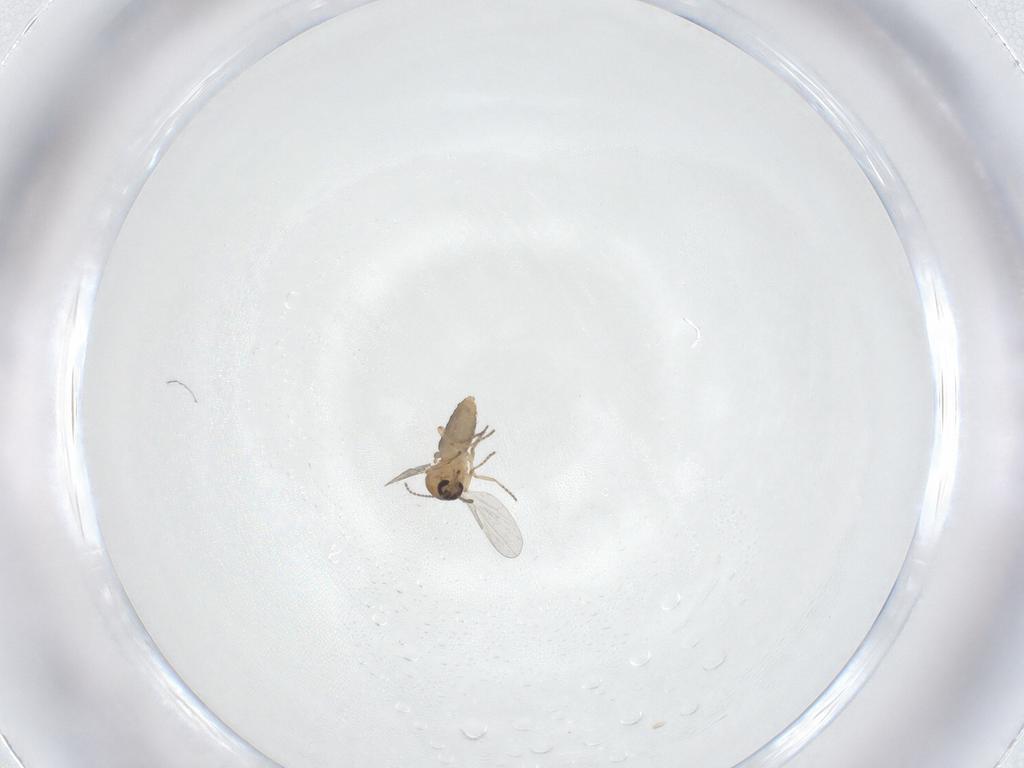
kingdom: Animalia
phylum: Arthropoda
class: Insecta
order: Diptera
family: Ceratopogonidae
